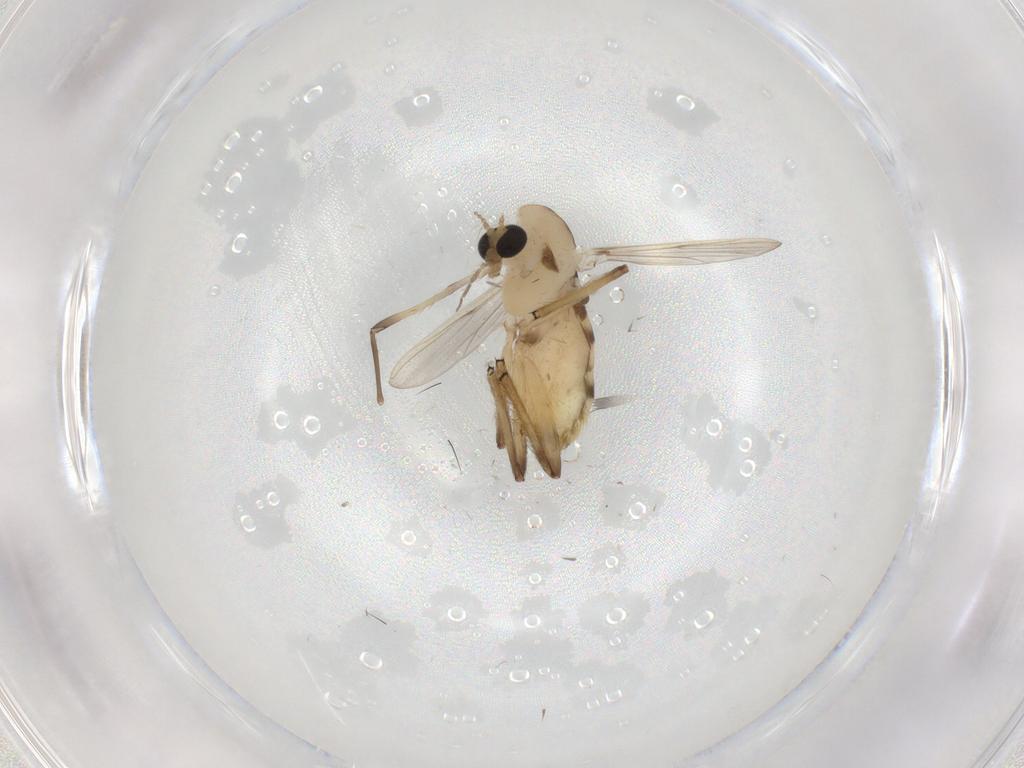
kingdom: Animalia
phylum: Arthropoda
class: Insecta
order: Diptera
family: Chironomidae
